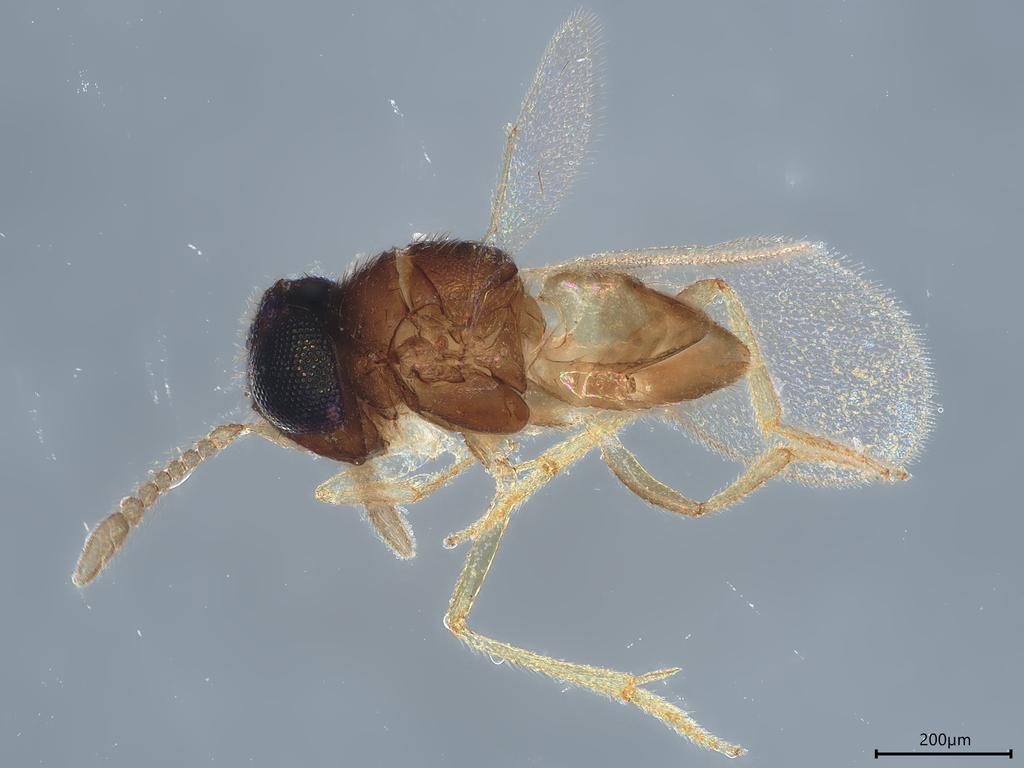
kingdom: Animalia
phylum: Arthropoda
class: Insecta
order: Hymenoptera
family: Encyrtidae
